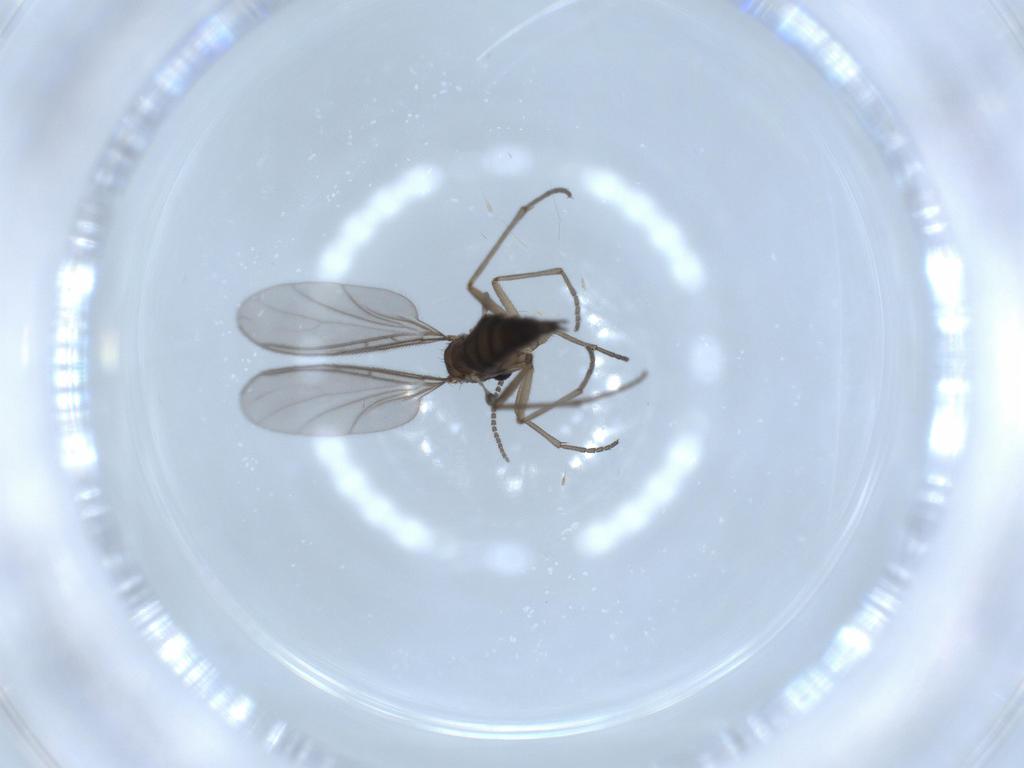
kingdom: Animalia
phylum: Arthropoda
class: Insecta
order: Diptera
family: Sciaridae
